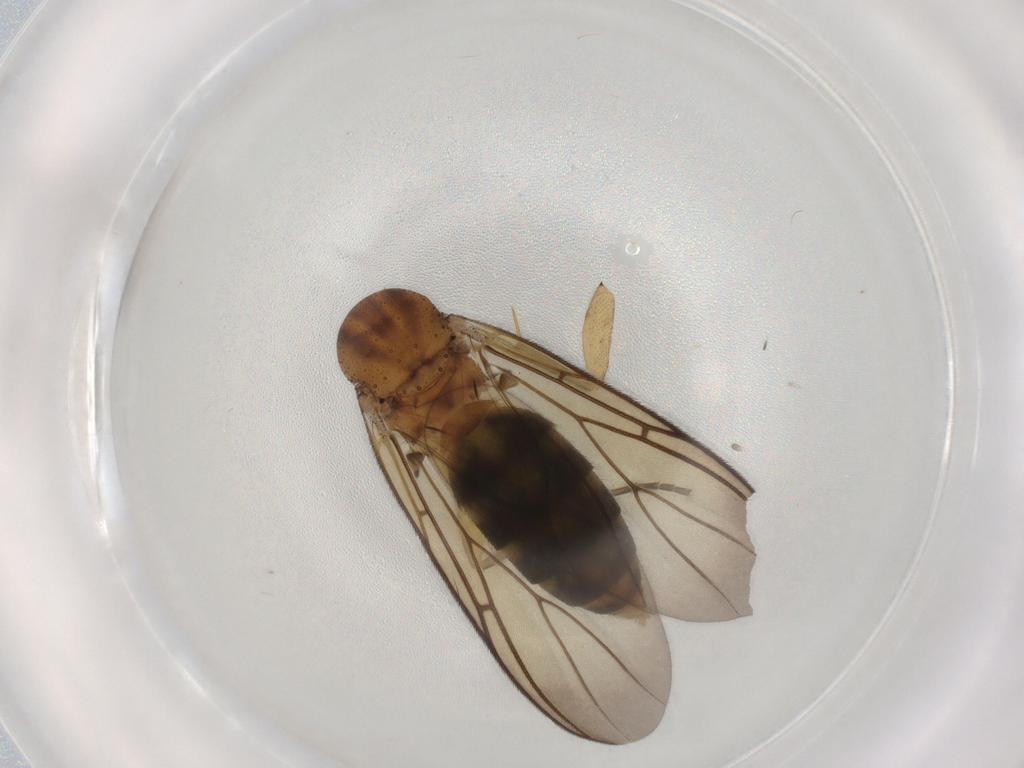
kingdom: Animalia
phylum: Arthropoda
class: Insecta
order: Diptera
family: Mycetophilidae
